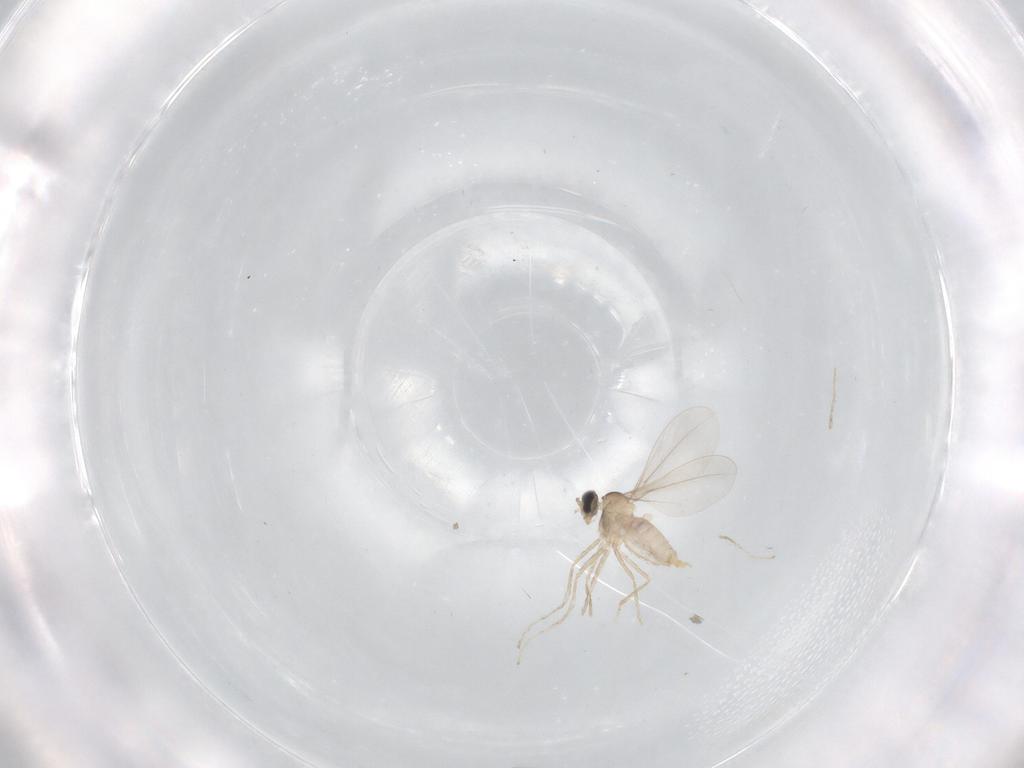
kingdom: Animalia
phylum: Arthropoda
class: Insecta
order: Diptera
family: Cecidomyiidae
